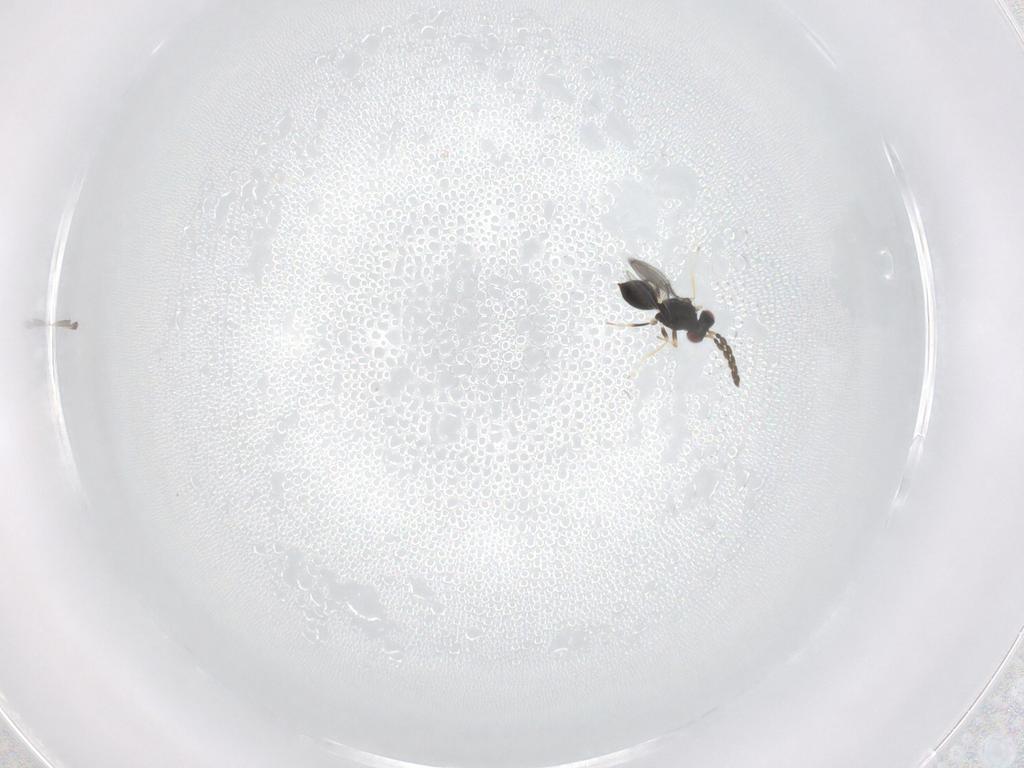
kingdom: Animalia
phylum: Arthropoda
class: Insecta
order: Hymenoptera
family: Eulophidae
